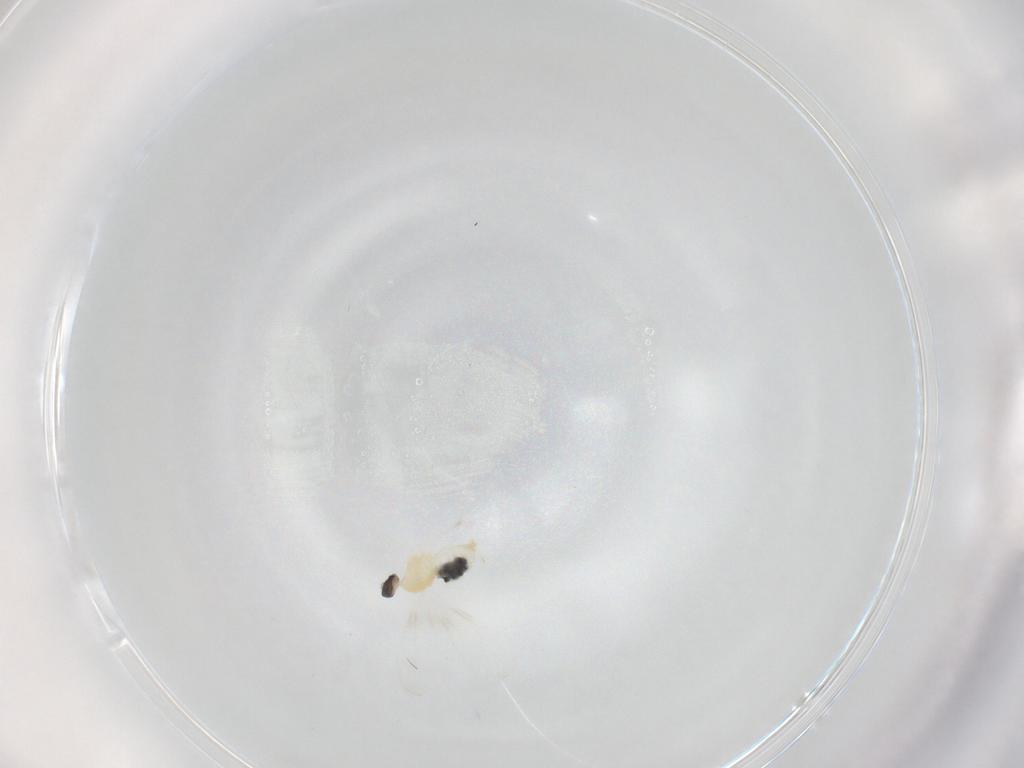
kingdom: Animalia
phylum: Arthropoda
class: Insecta
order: Diptera
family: Cecidomyiidae
